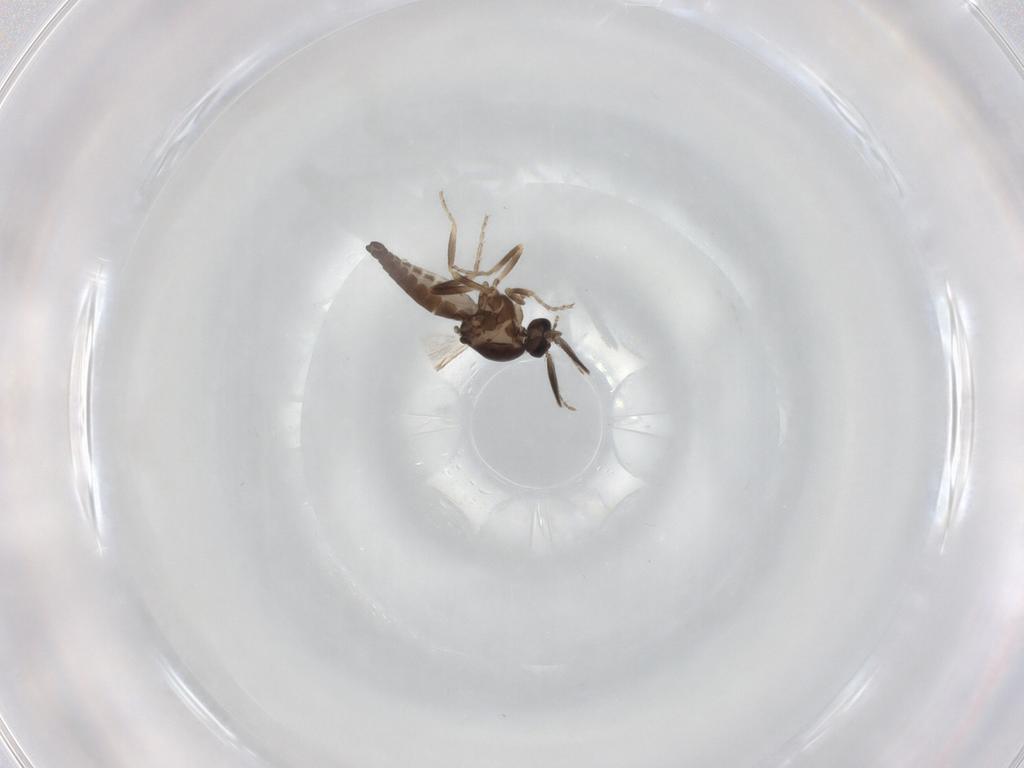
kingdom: Animalia
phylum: Arthropoda
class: Insecta
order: Diptera
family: Ceratopogonidae
